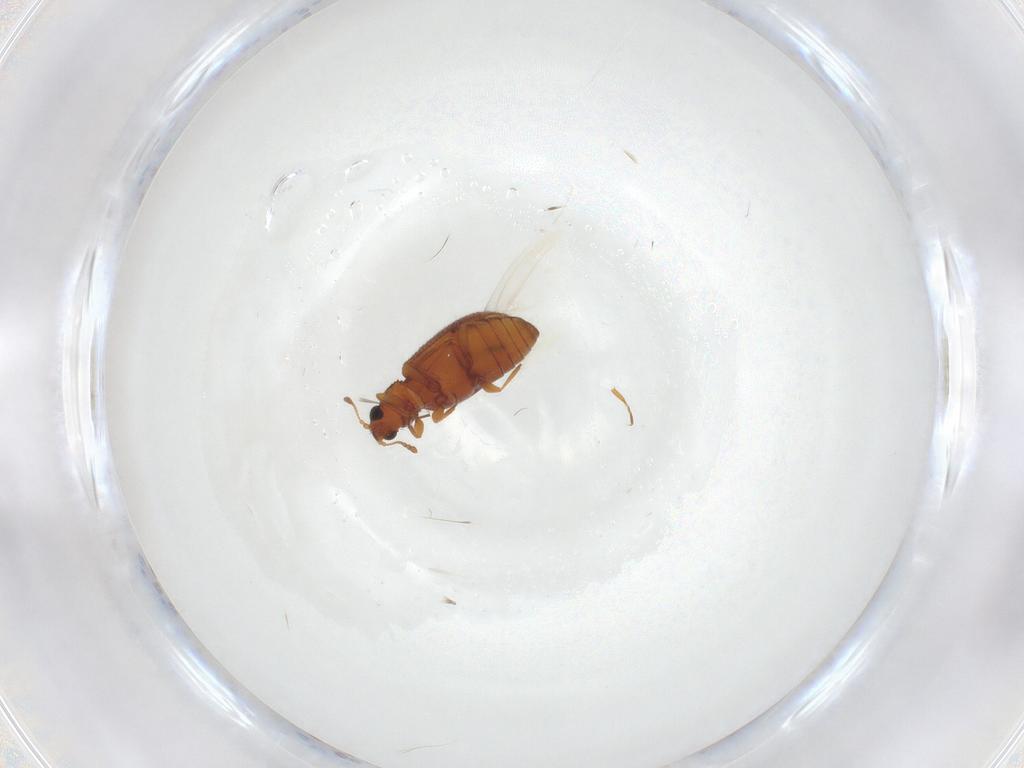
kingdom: Animalia
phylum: Arthropoda
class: Insecta
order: Coleoptera
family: Latridiidae
